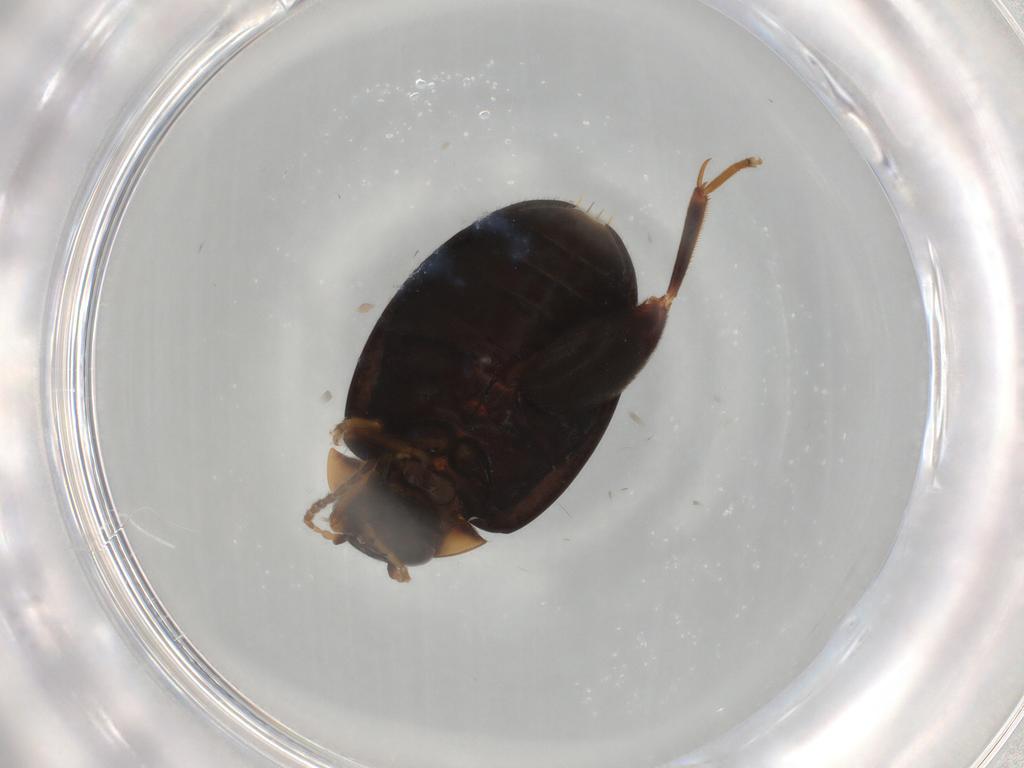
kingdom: Animalia
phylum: Arthropoda
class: Insecta
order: Coleoptera
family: Scirtidae
